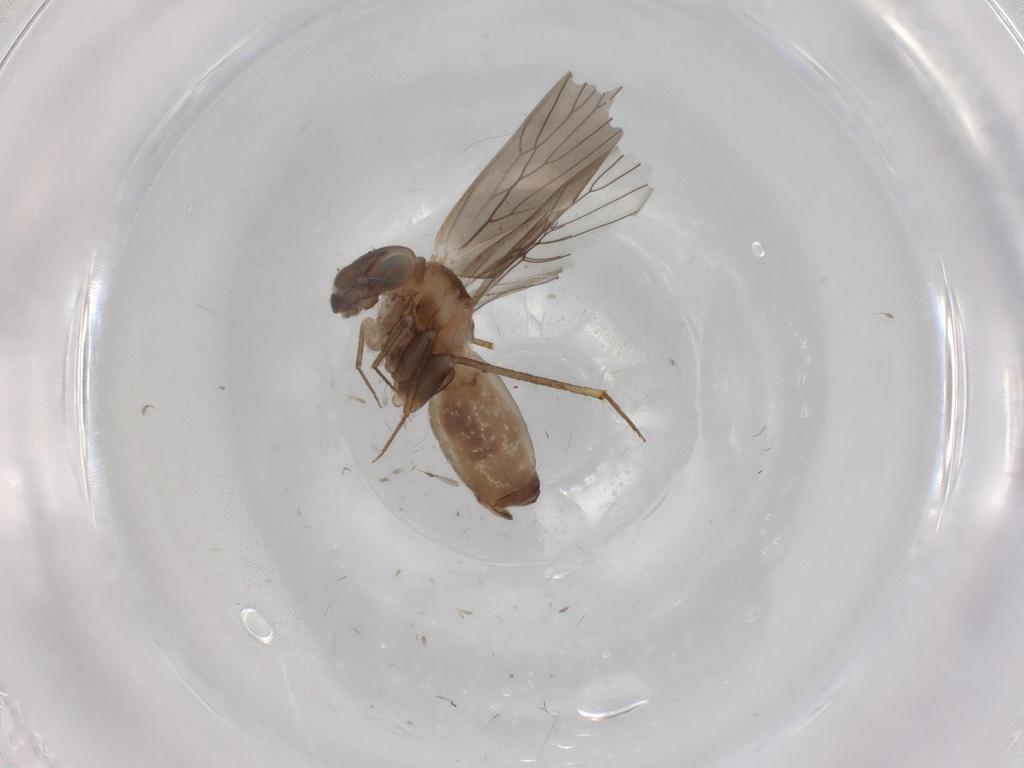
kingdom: Animalia
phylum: Arthropoda
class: Insecta
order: Psocodea
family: Lepidopsocidae
